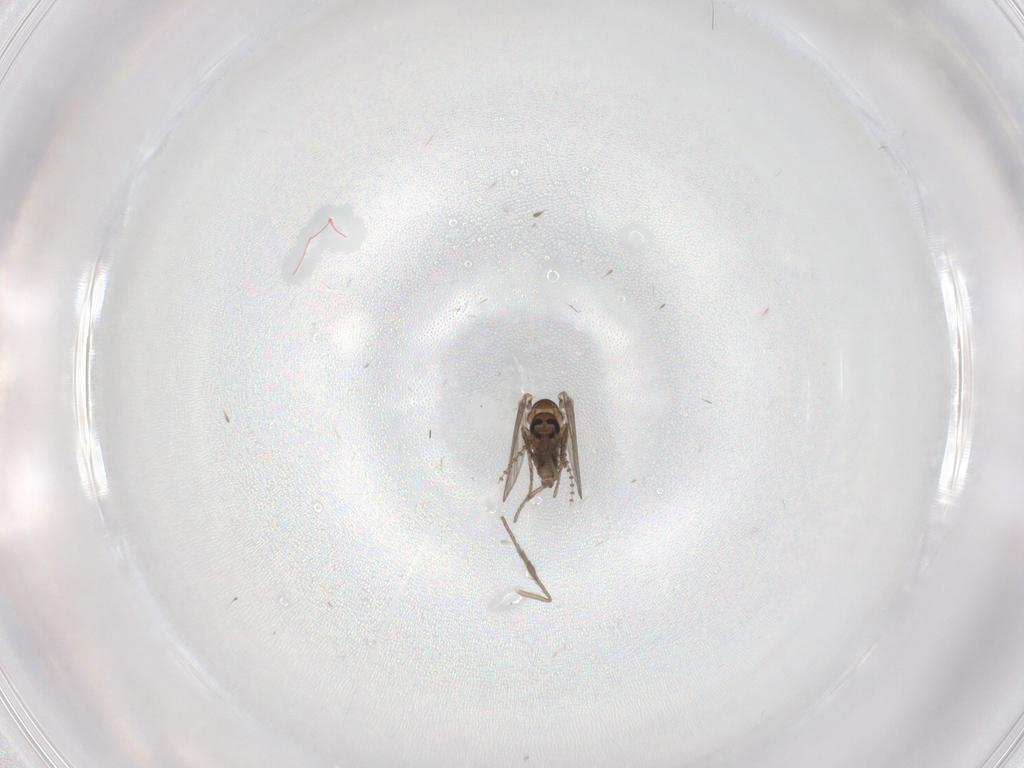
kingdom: Animalia
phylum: Arthropoda
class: Insecta
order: Diptera
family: Psychodidae
